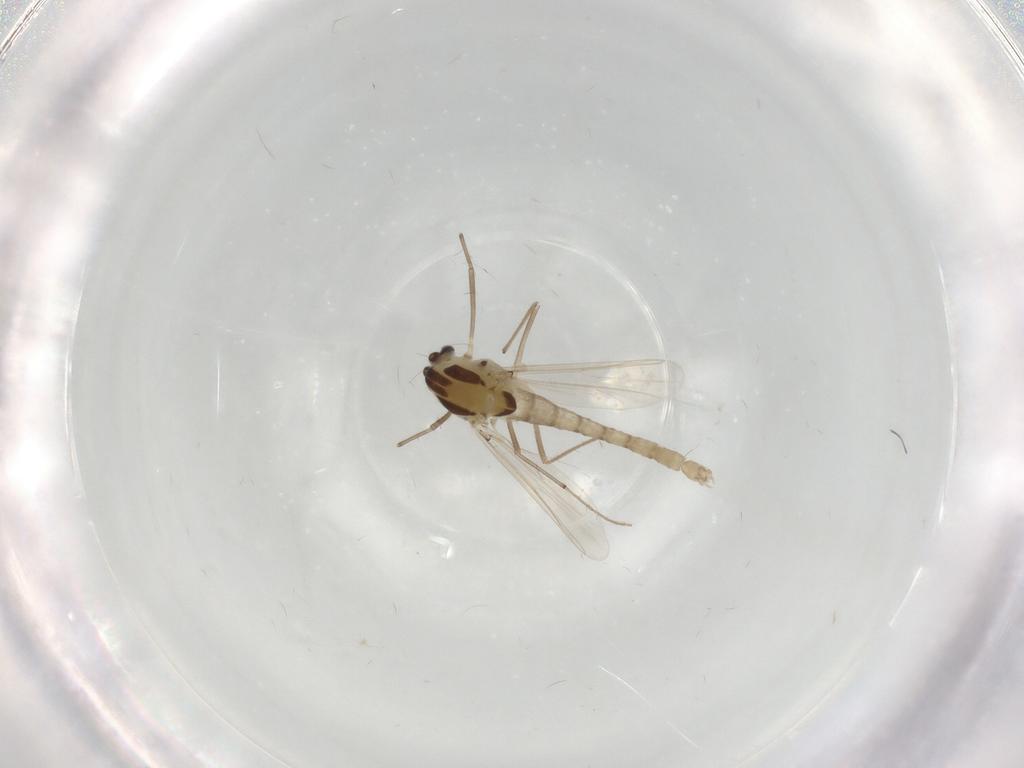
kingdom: Animalia
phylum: Arthropoda
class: Insecta
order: Diptera
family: Chironomidae
